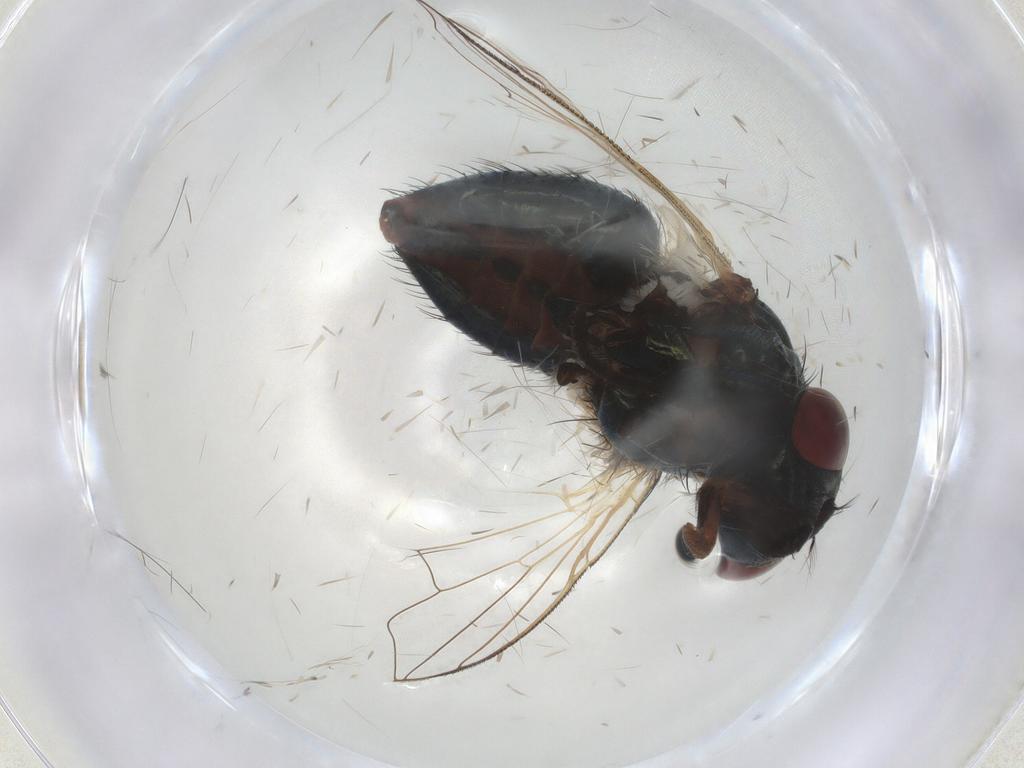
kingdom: Animalia
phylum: Arthropoda
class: Insecta
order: Diptera
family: Muscidae
